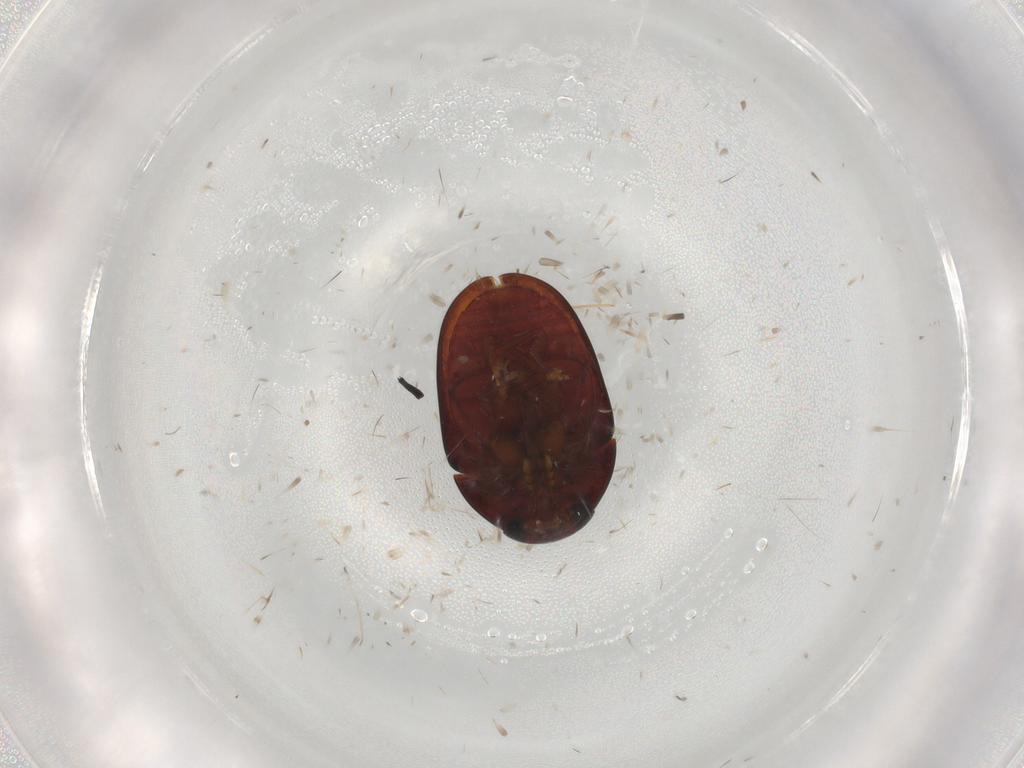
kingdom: Animalia
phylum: Arthropoda
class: Insecta
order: Coleoptera
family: Phalacridae
